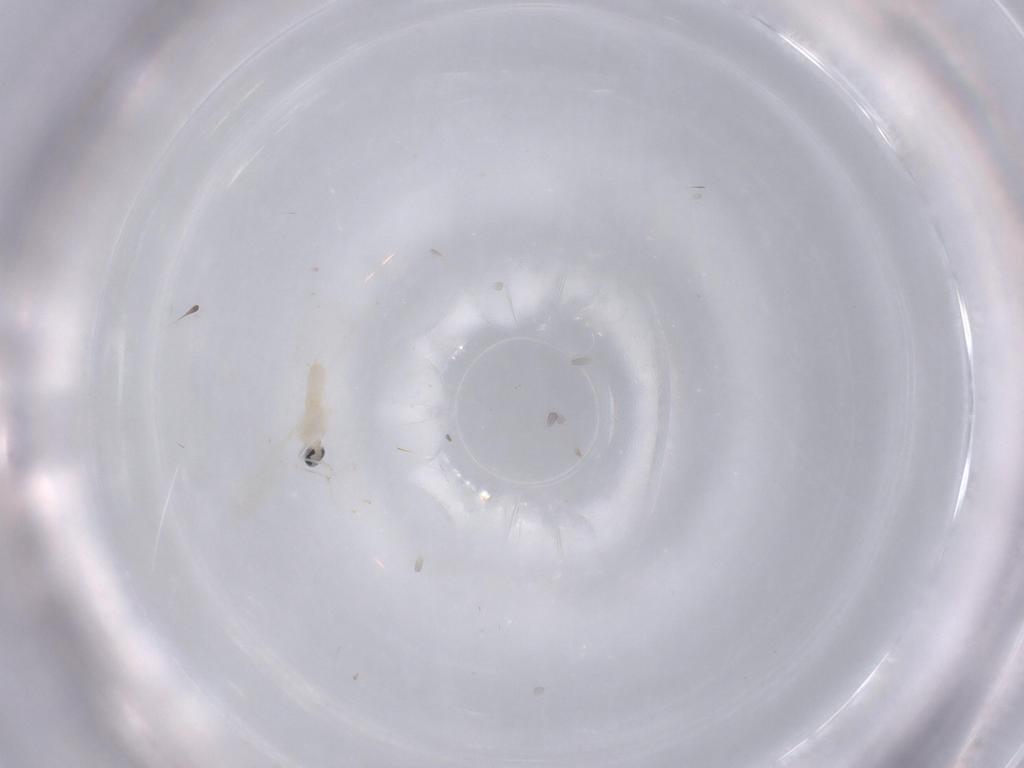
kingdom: Animalia
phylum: Arthropoda
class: Insecta
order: Diptera
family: Cecidomyiidae
